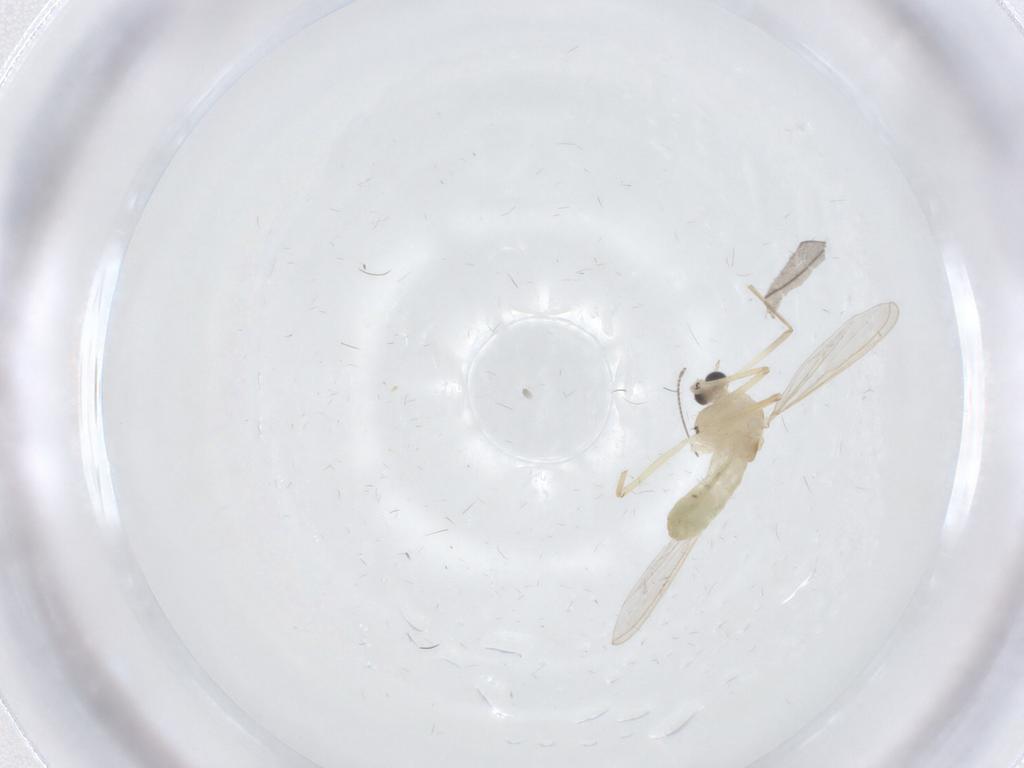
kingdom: Animalia
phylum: Arthropoda
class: Insecta
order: Diptera
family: Chironomidae
